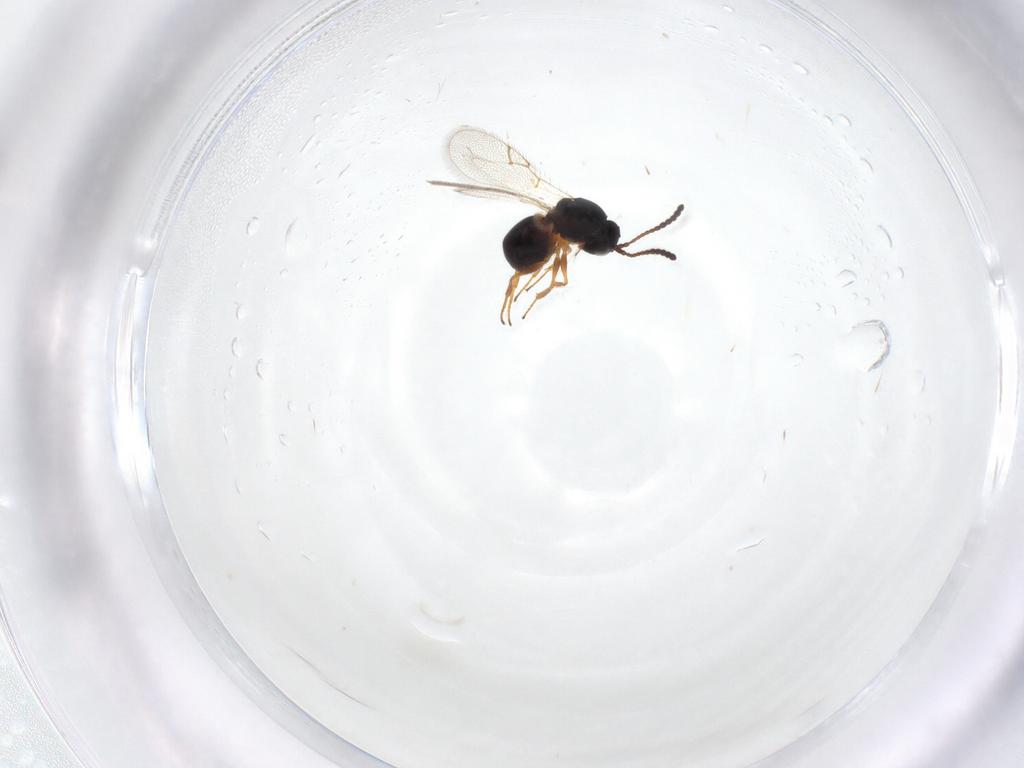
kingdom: Animalia
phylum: Arthropoda
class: Insecta
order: Hymenoptera
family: Figitidae
